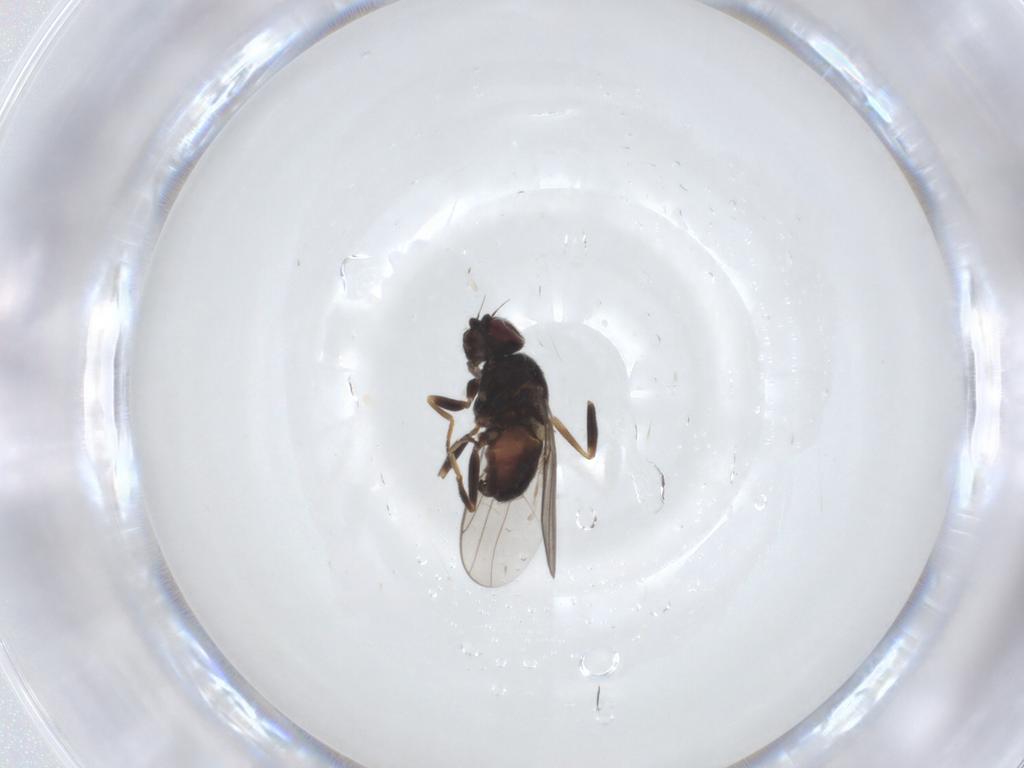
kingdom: Animalia
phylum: Arthropoda
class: Insecta
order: Diptera
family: Chloropidae
